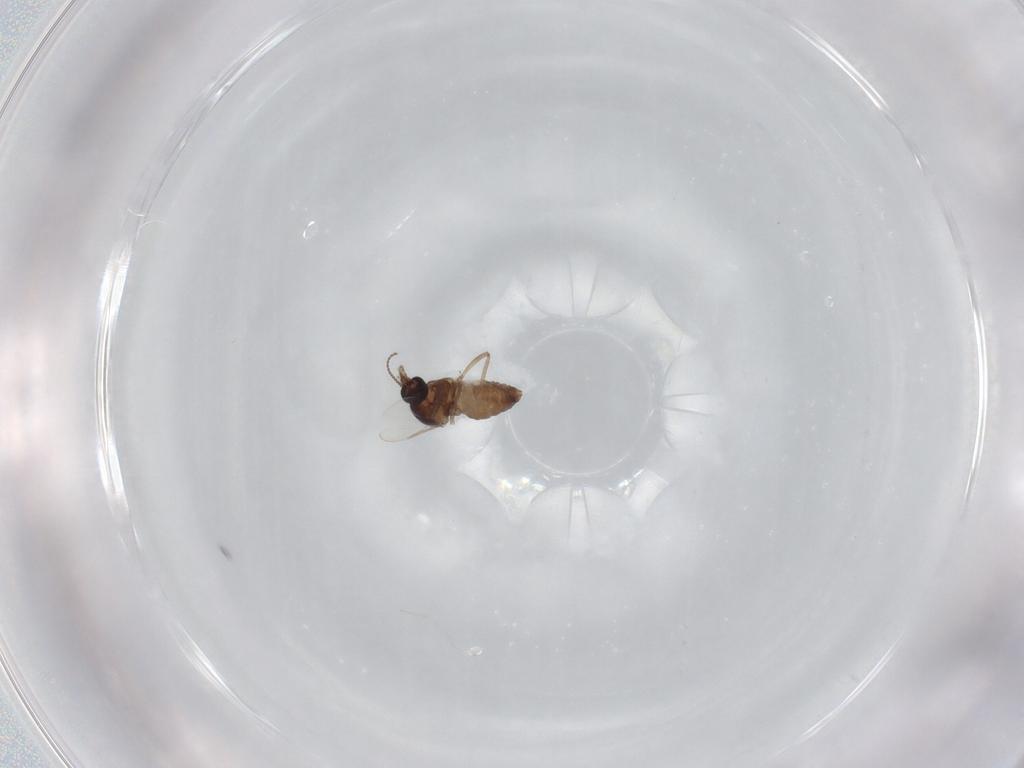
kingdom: Animalia
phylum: Arthropoda
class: Insecta
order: Diptera
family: Ceratopogonidae
